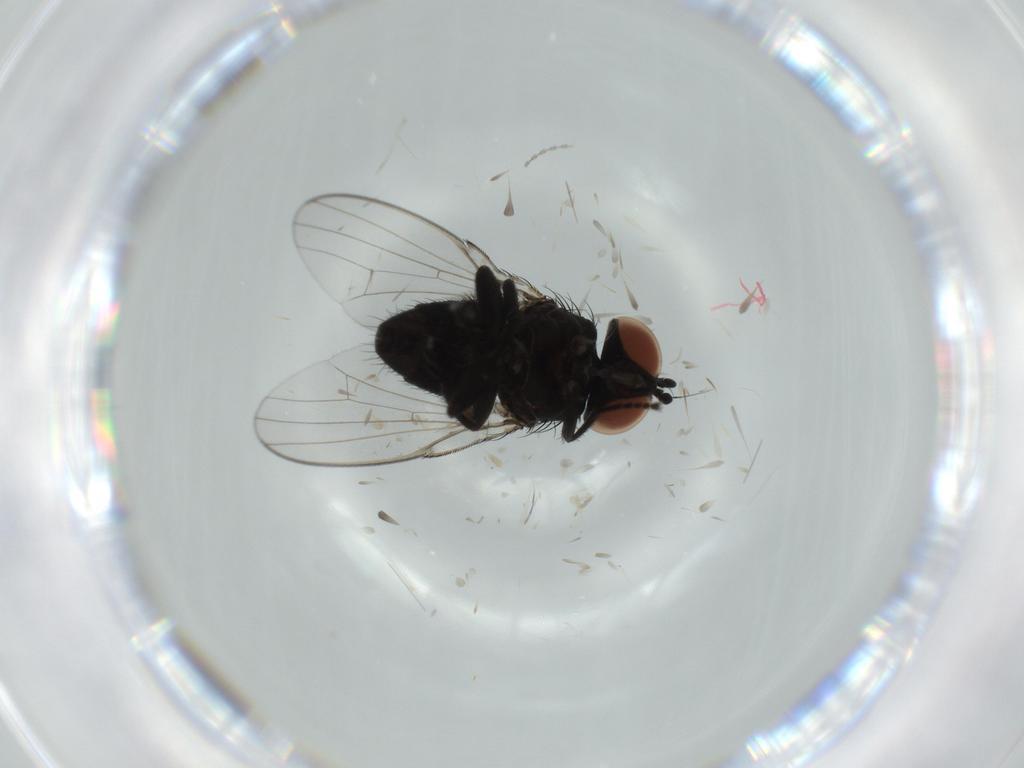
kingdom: Animalia
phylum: Arthropoda
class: Insecta
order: Diptera
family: Milichiidae
